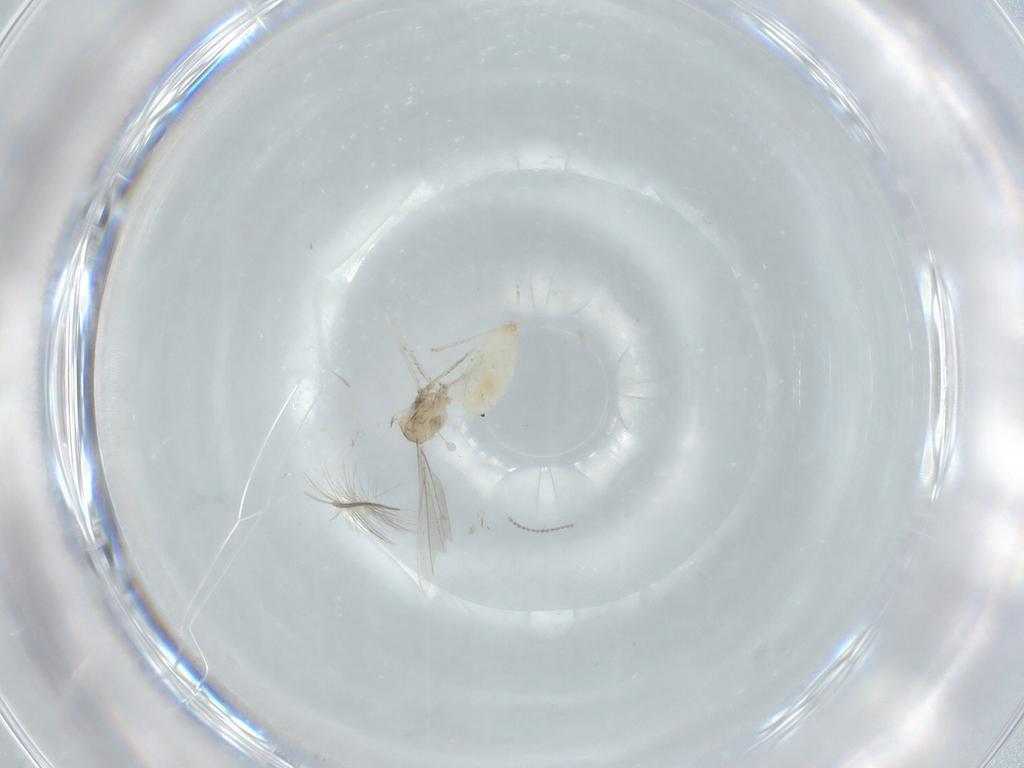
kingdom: Animalia
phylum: Arthropoda
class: Insecta
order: Diptera
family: Cecidomyiidae
